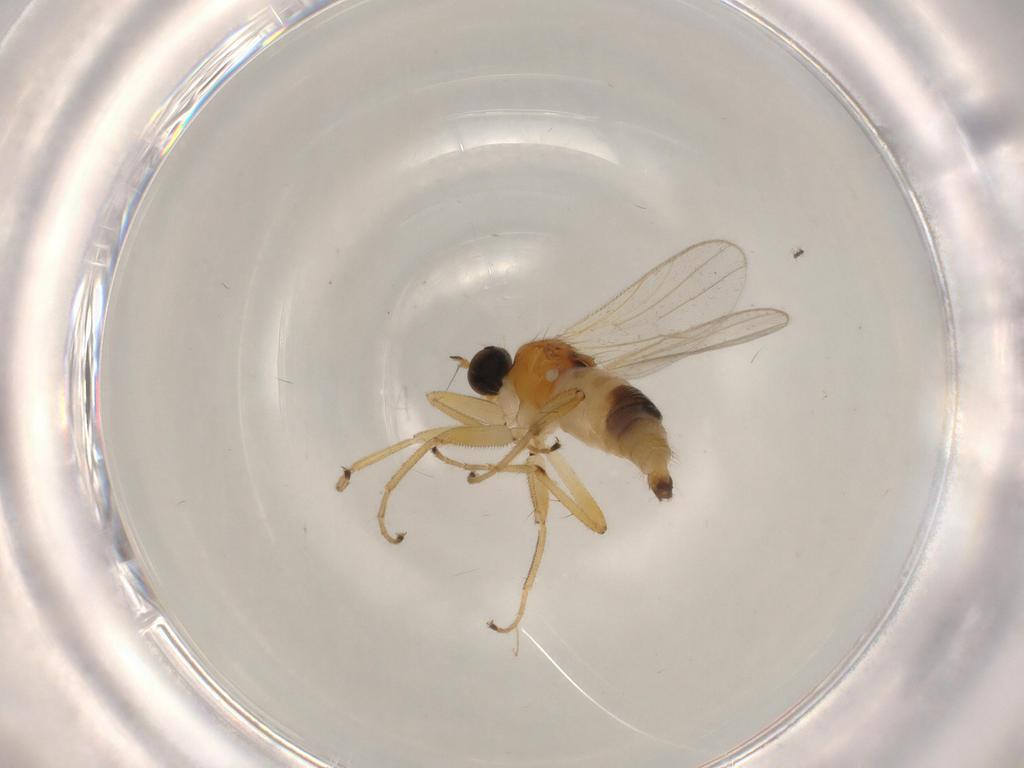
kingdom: Animalia
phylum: Arthropoda
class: Insecta
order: Diptera
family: Hybotidae
